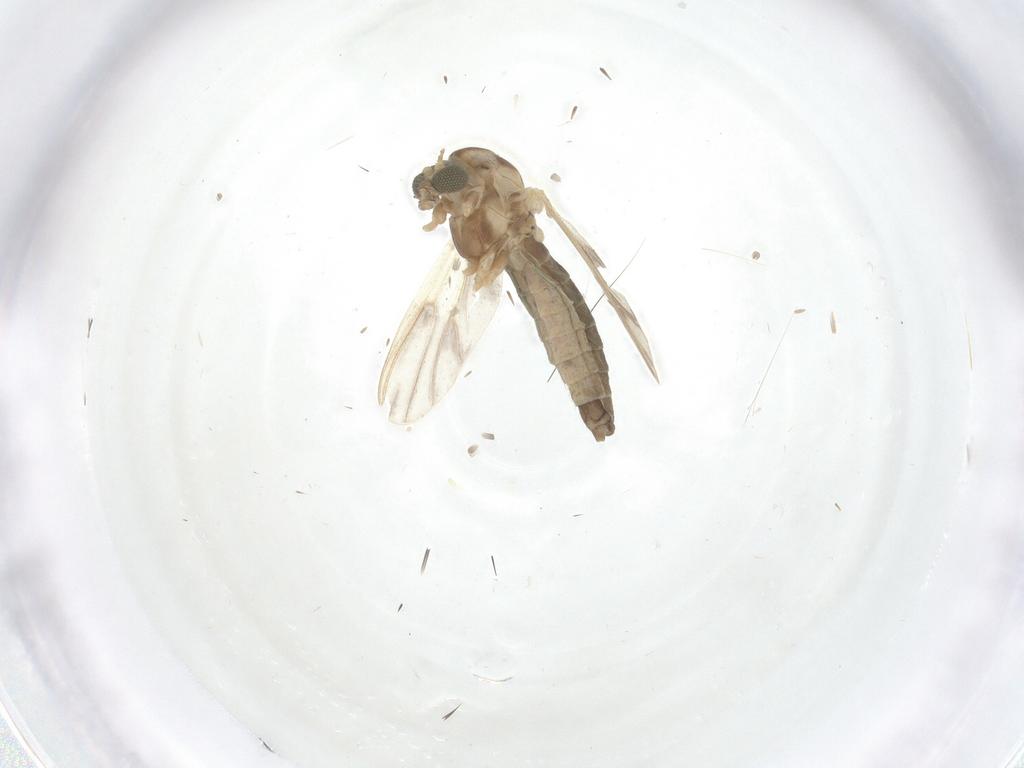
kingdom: Animalia
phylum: Arthropoda
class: Insecta
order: Diptera
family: Chironomidae
